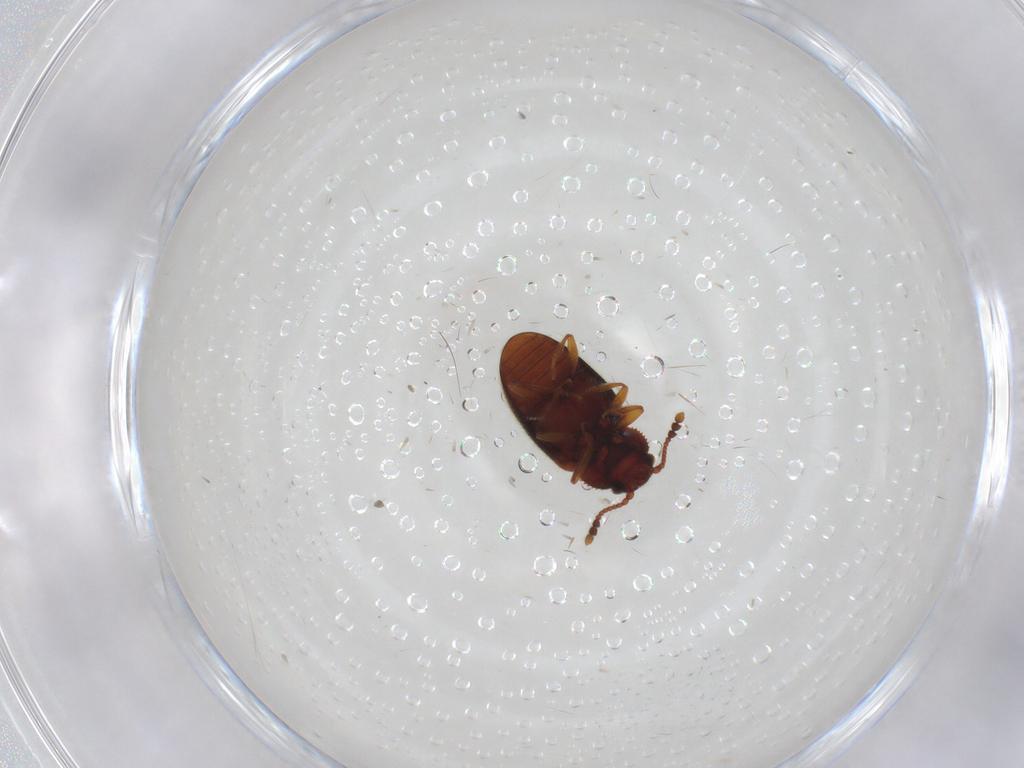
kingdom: Animalia
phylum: Arthropoda
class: Insecta
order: Coleoptera
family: Cryptophagidae
